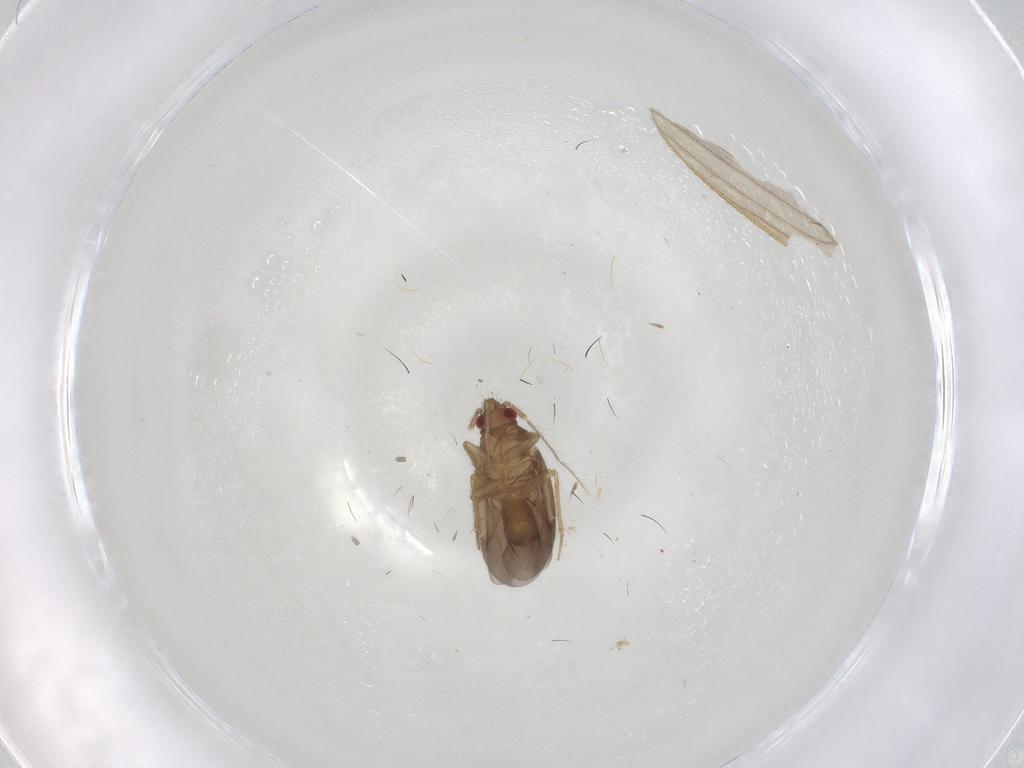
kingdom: Animalia
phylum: Arthropoda
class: Insecta
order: Hemiptera
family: Ceratocombidae
